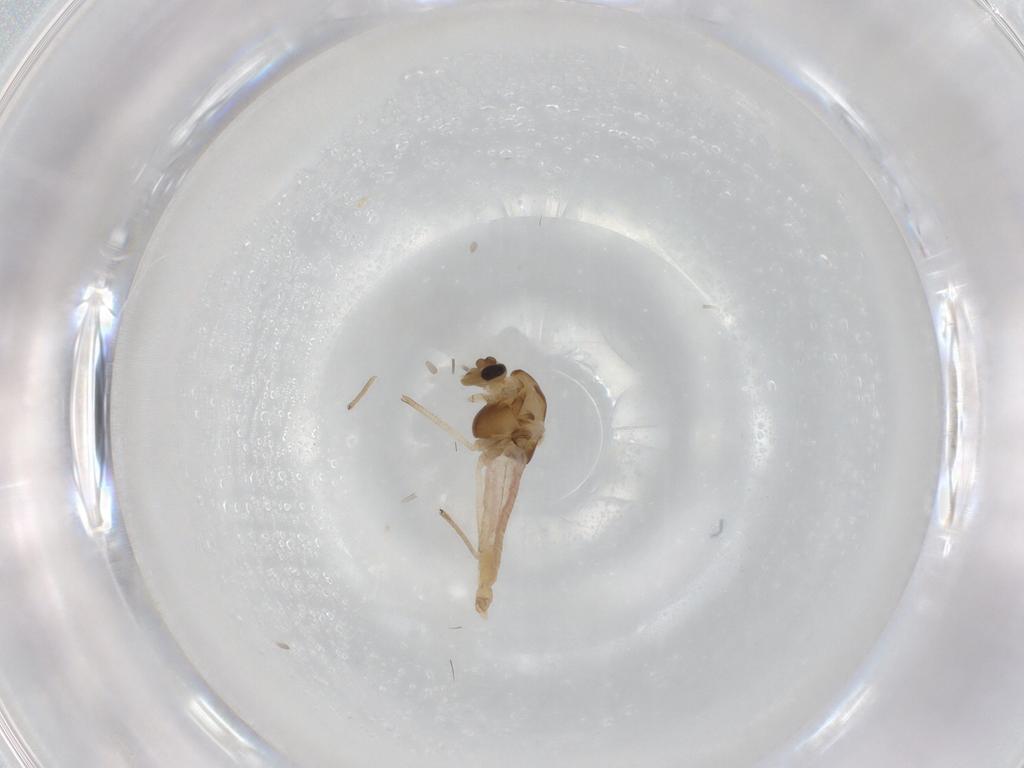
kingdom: Animalia
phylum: Arthropoda
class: Insecta
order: Diptera
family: Chironomidae
